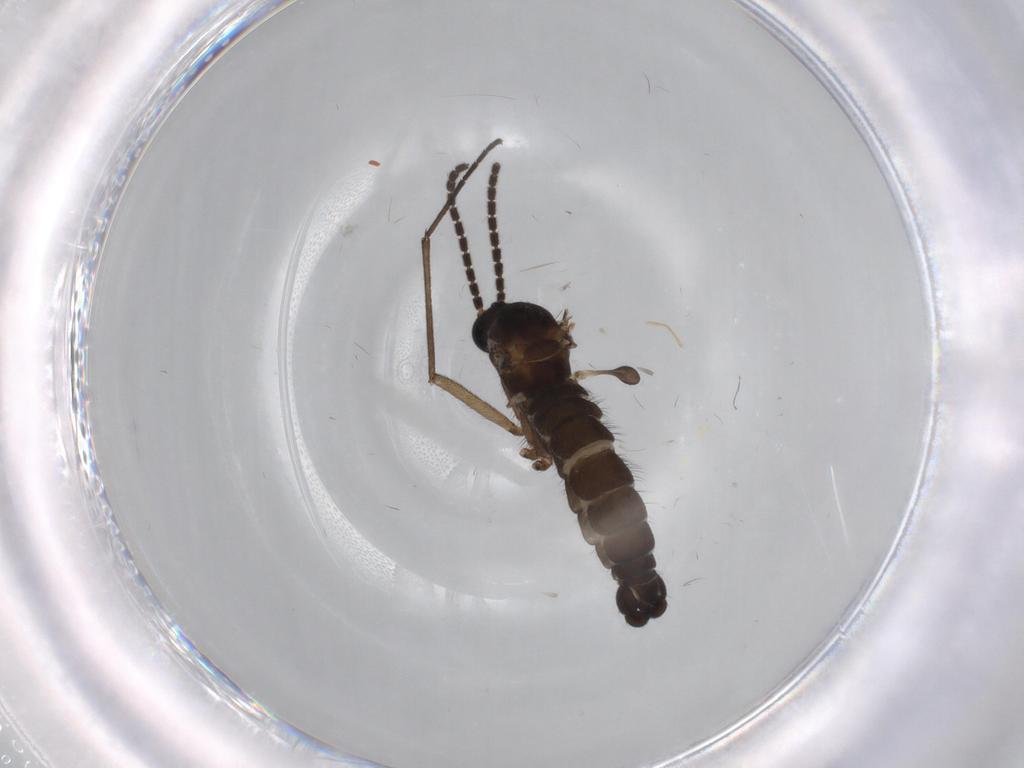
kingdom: Animalia
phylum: Arthropoda
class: Insecta
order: Diptera
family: Sciaridae
